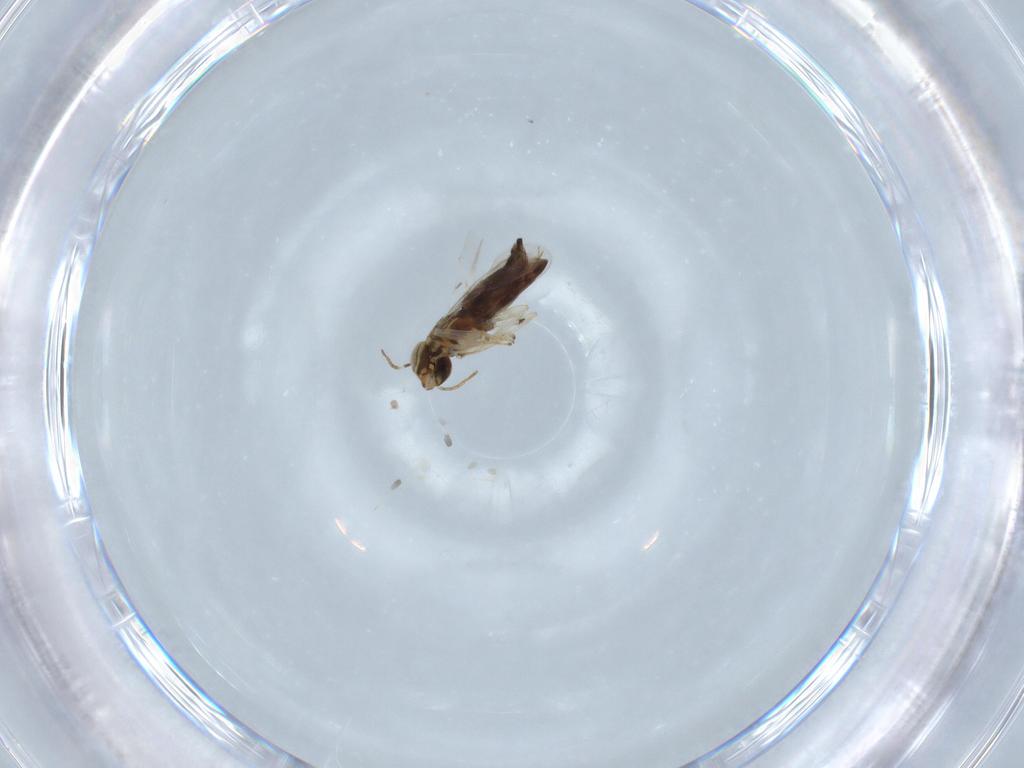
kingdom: Animalia
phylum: Arthropoda
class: Insecta
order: Hymenoptera
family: Encyrtidae
